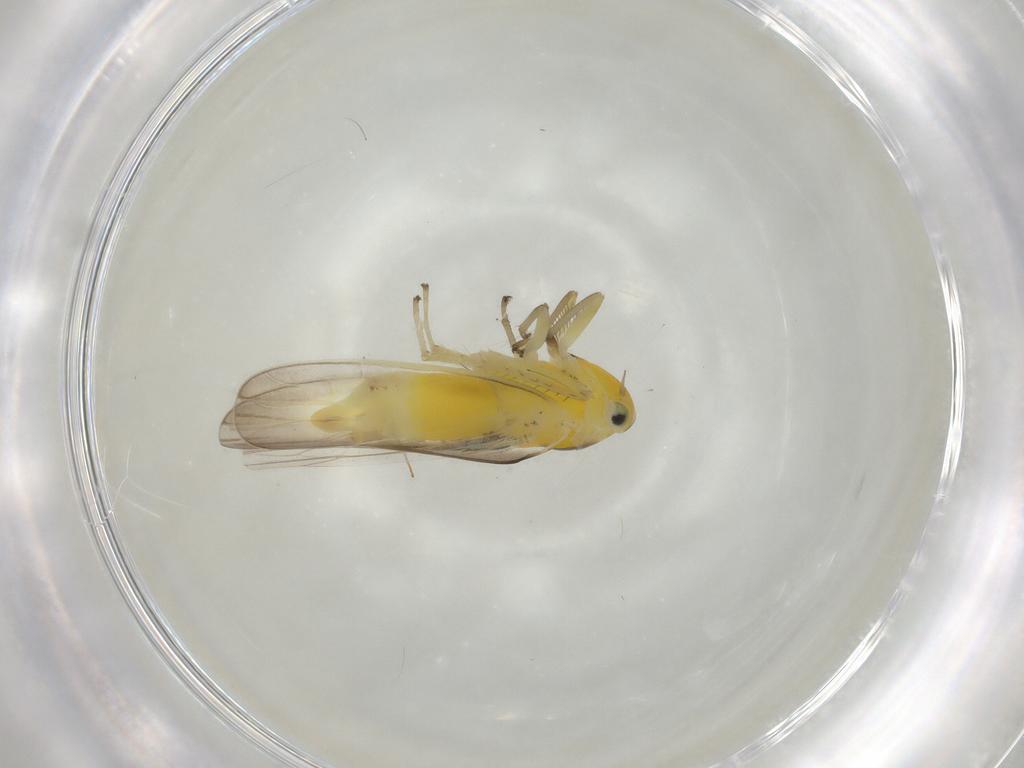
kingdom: Animalia
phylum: Arthropoda
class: Insecta
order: Hemiptera
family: Cicadellidae
